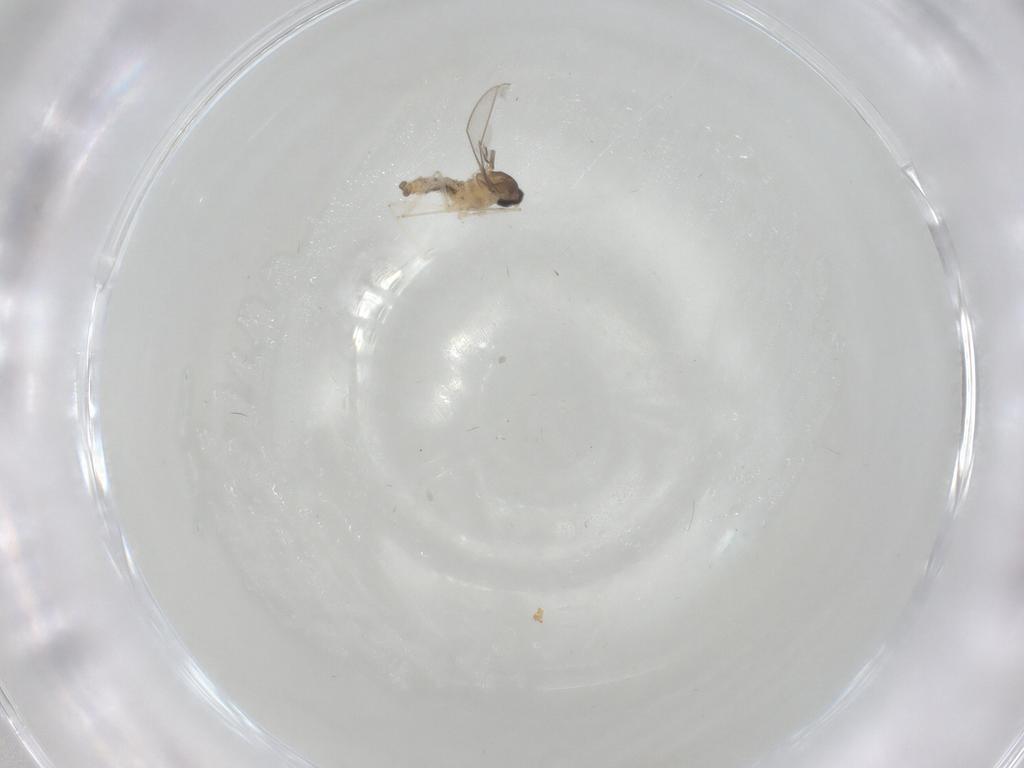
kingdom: Animalia
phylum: Arthropoda
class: Insecta
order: Diptera
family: Cecidomyiidae
